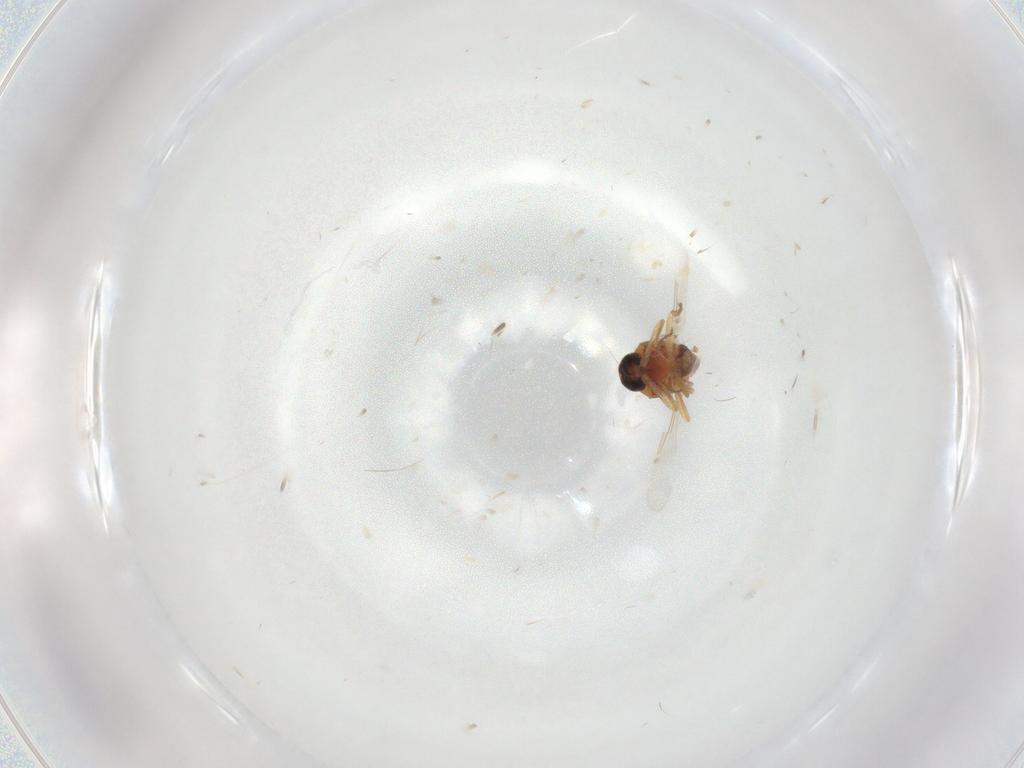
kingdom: Animalia
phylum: Arthropoda
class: Insecta
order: Diptera
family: Ceratopogonidae
